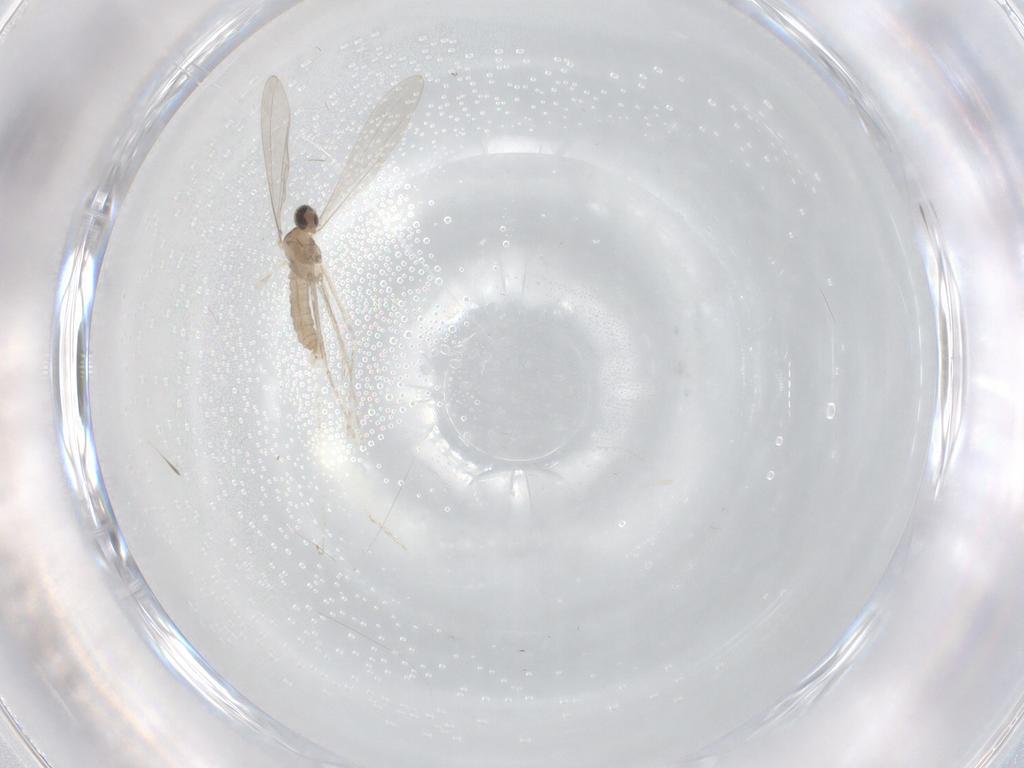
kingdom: Animalia
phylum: Arthropoda
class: Insecta
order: Diptera
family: Cecidomyiidae
